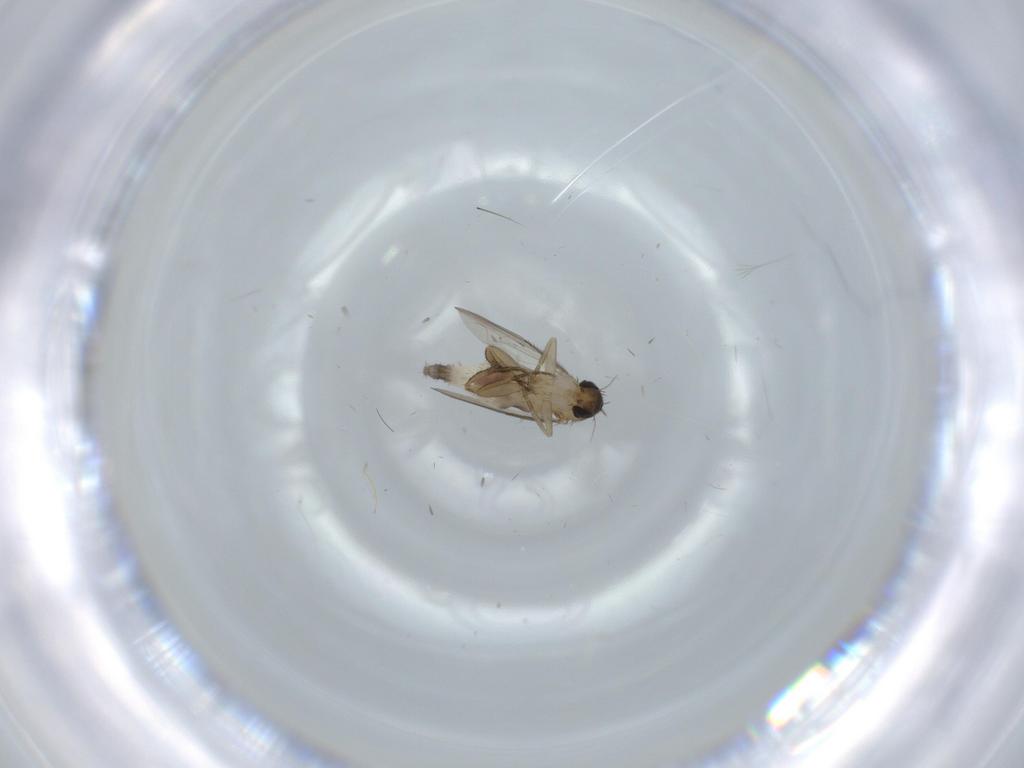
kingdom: Animalia
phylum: Arthropoda
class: Insecta
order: Diptera
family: Phoridae
